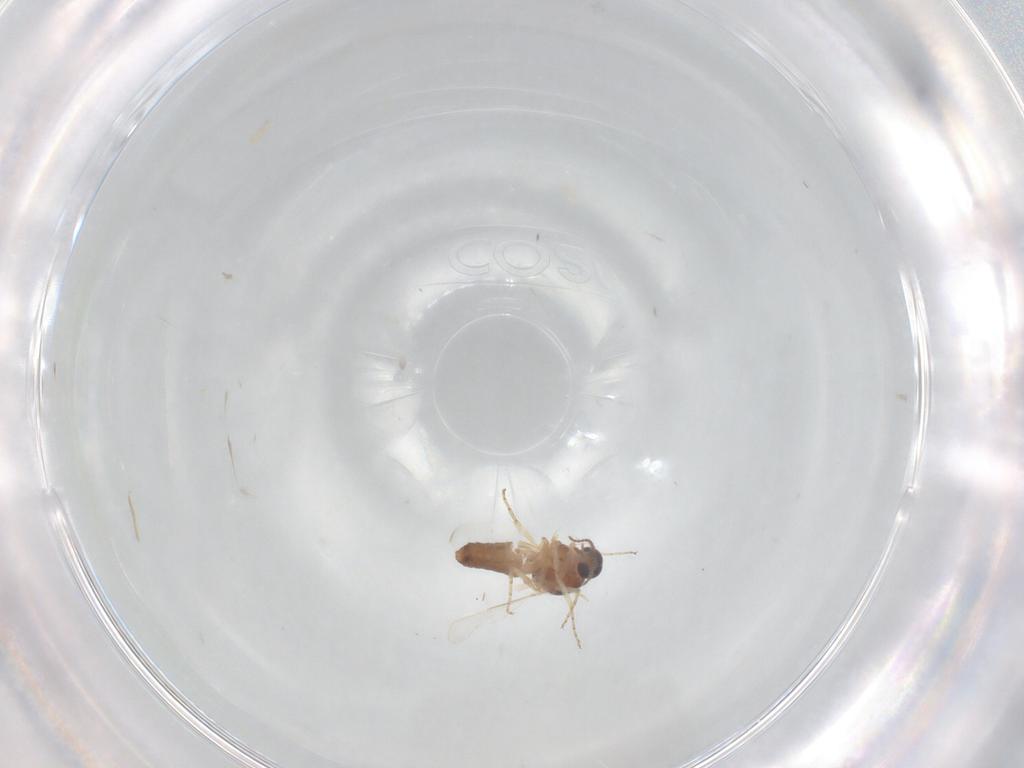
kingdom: Animalia
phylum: Arthropoda
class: Insecta
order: Diptera
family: Ceratopogonidae
